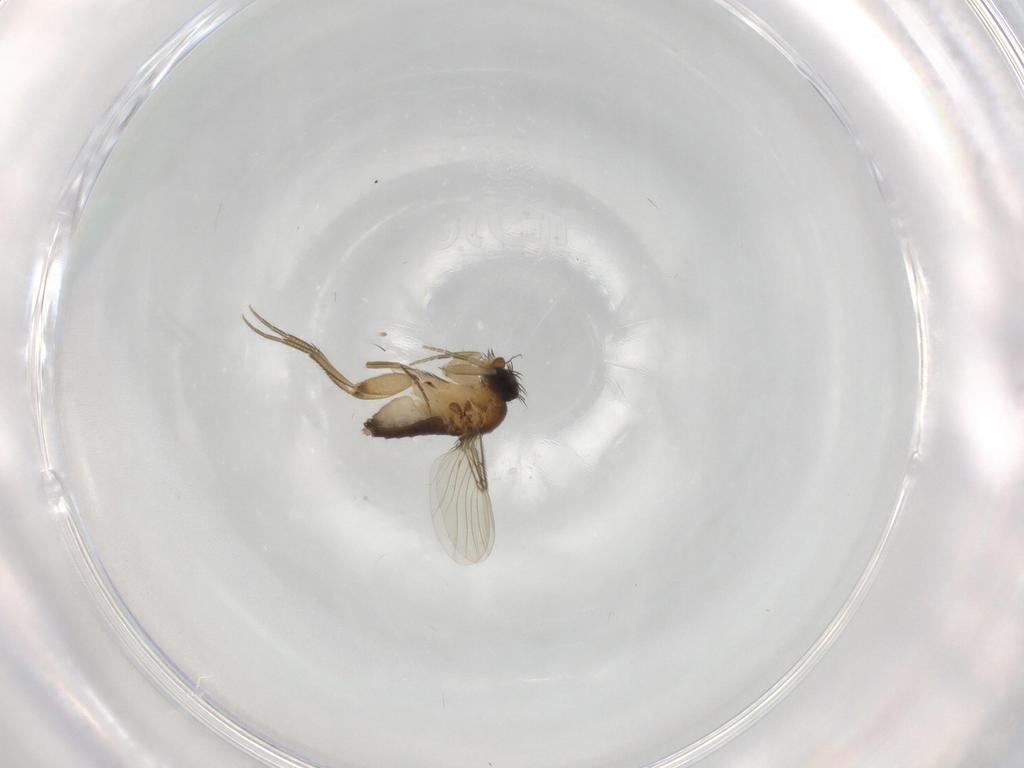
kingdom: Animalia
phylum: Arthropoda
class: Insecta
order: Diptera
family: Phoridae
